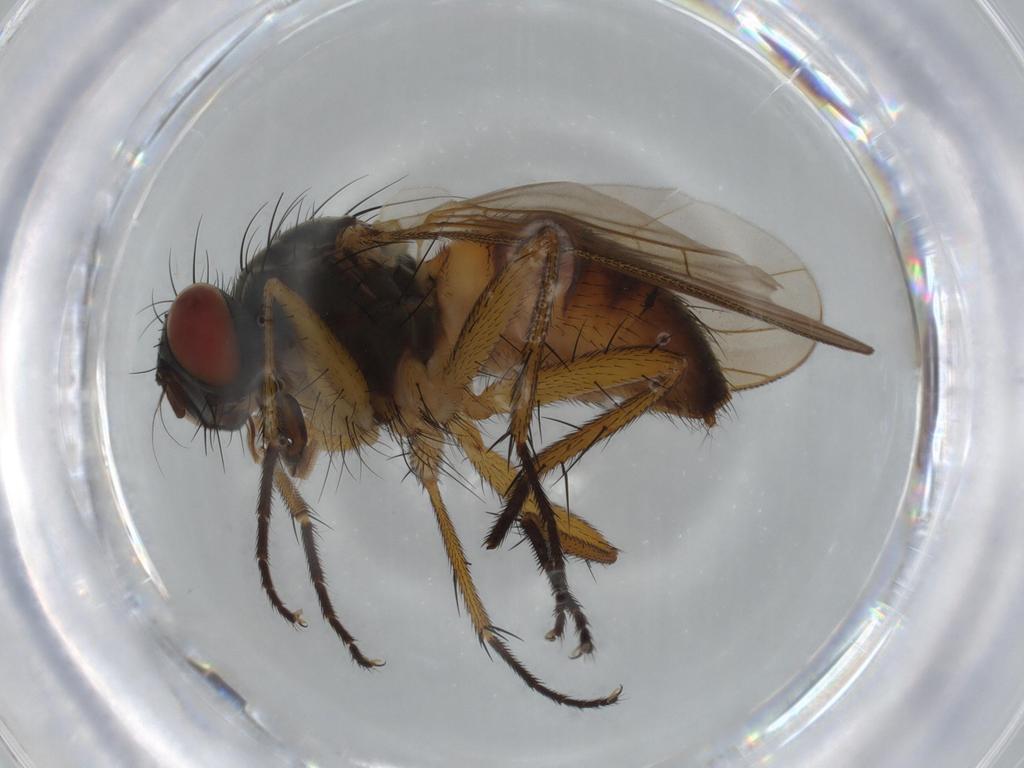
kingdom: Animalia
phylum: Arthropoda
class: Insecta
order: Diptera
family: Muscidae
